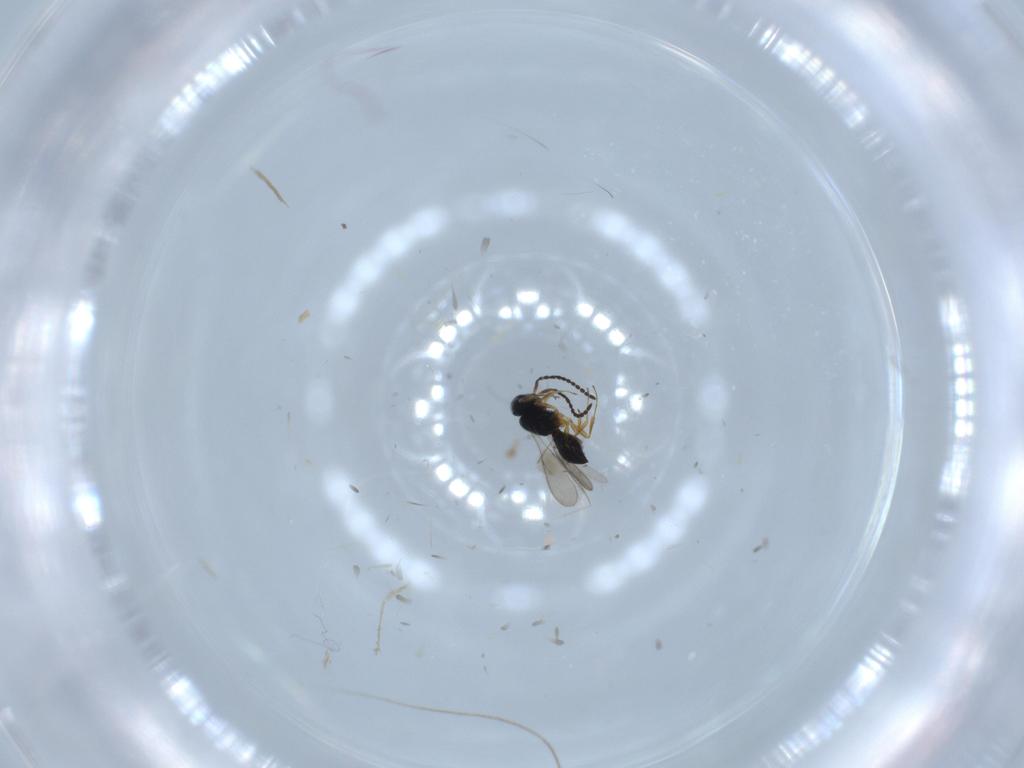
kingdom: Animalia
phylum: Arthropoda
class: Insecta
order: Hymenoptera
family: Scelionidae
